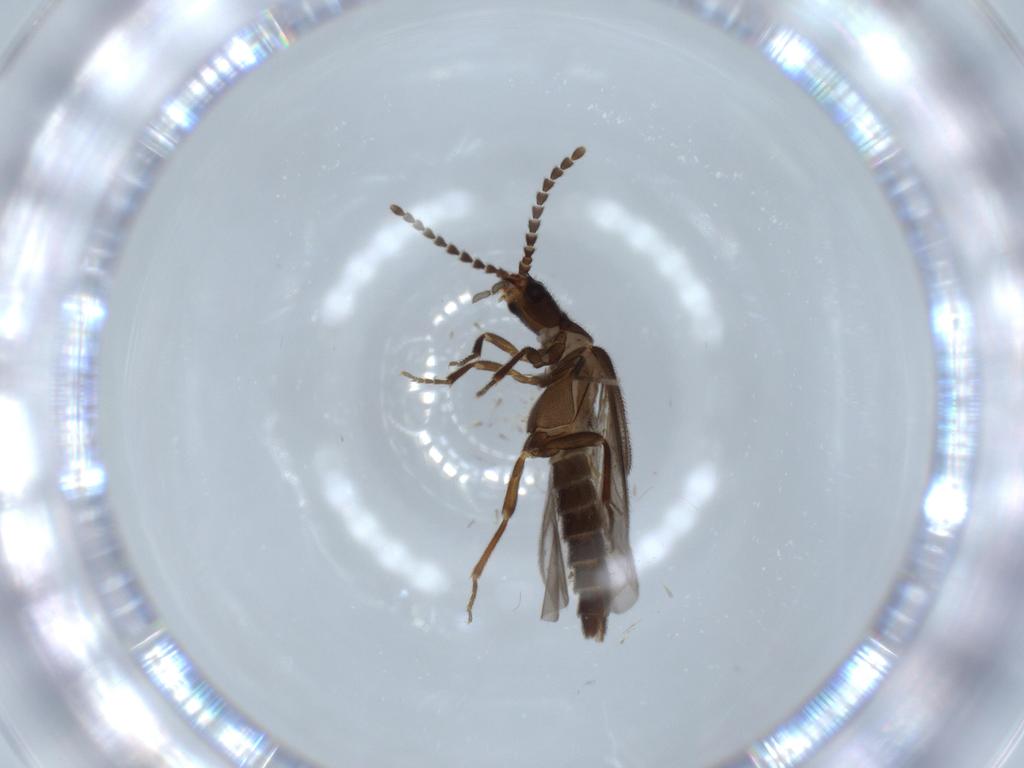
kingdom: Animalia
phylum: Arthropoda
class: Insecta
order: Coleoptera
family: Omethidae
